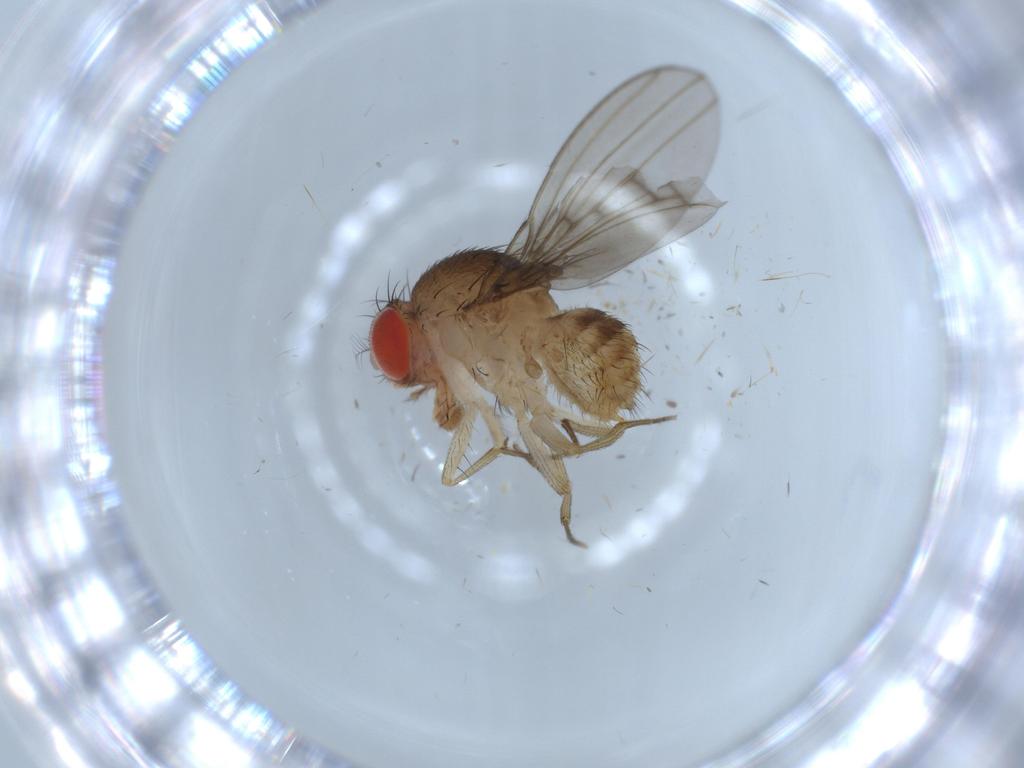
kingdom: Animalia
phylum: Arthropoda
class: Insecta
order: Diptera
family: Drosophilidae
